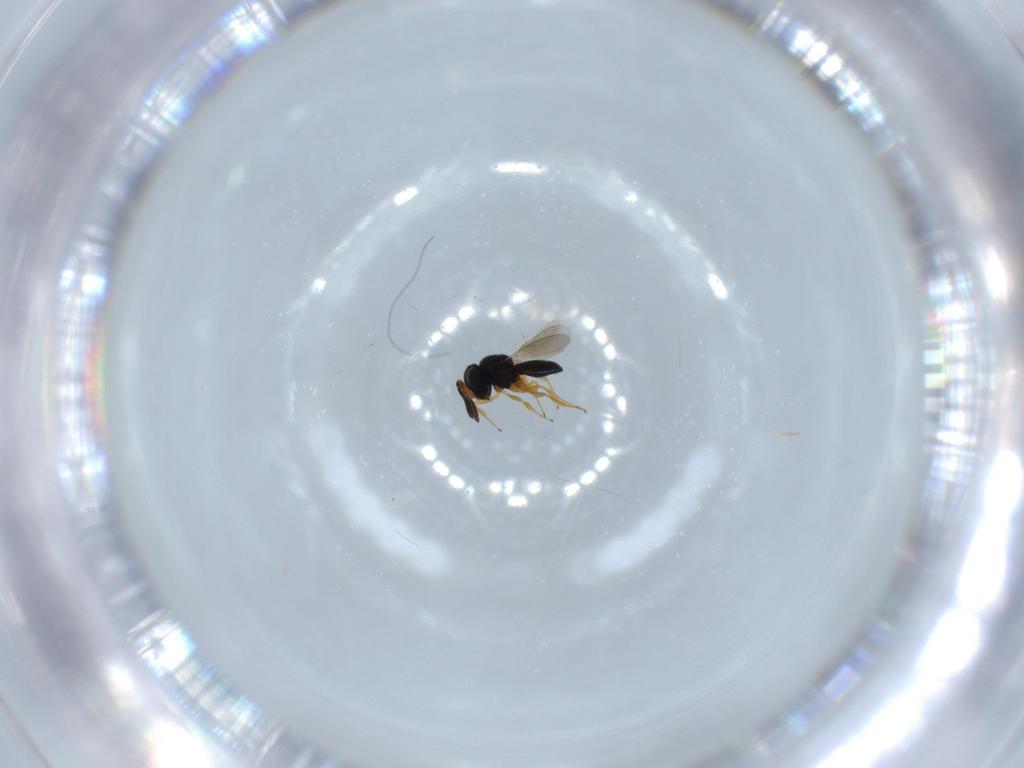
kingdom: Animalia
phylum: Arthropoda
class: Insecta
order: Hymenoptera
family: Scelionidae
